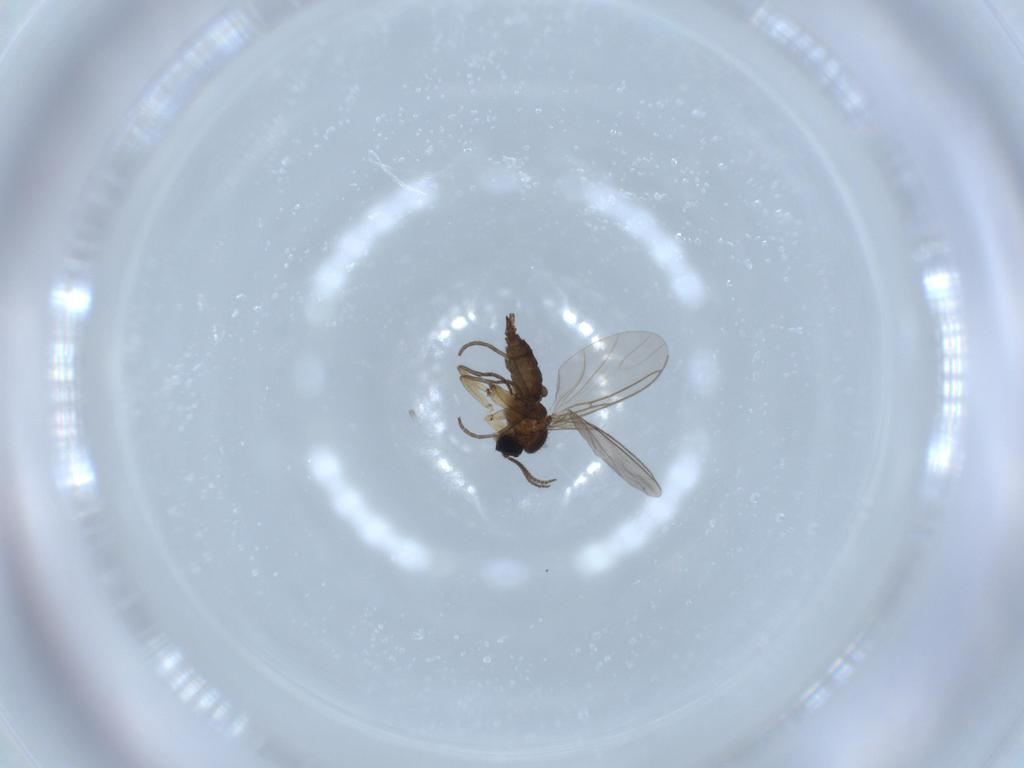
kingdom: Animalia
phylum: Arthropoda
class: Insecta
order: Diptera
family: Sciaridae
